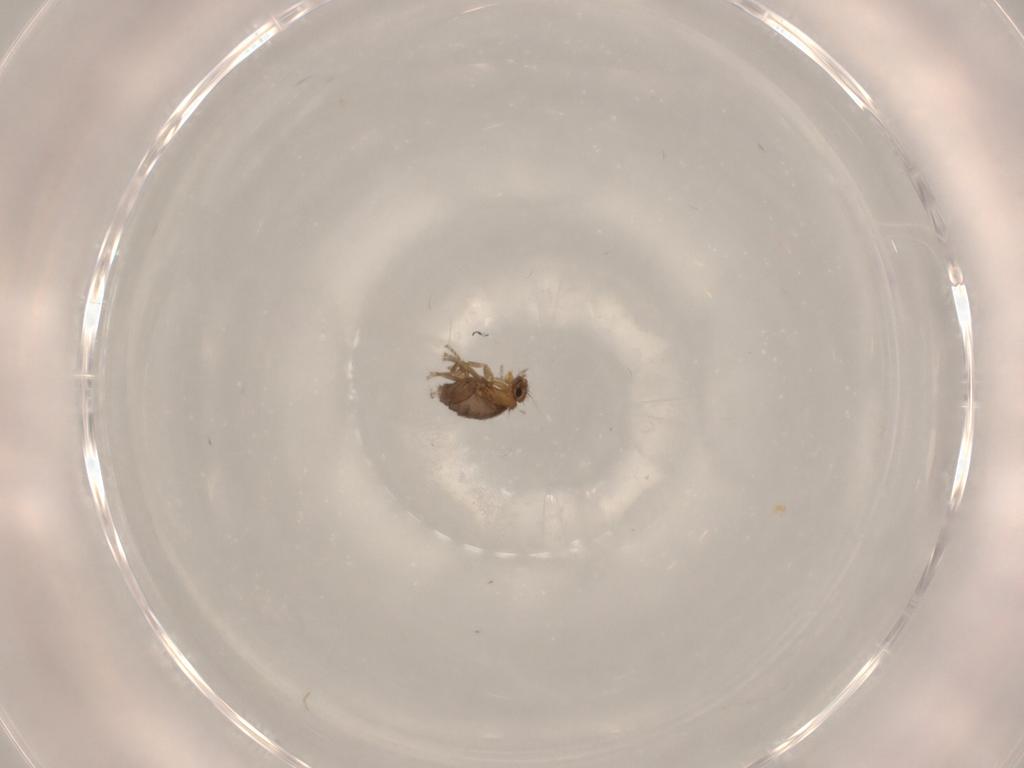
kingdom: Animalia
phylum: Arthropoda
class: Insecta
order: Diptera
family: Phoridae
